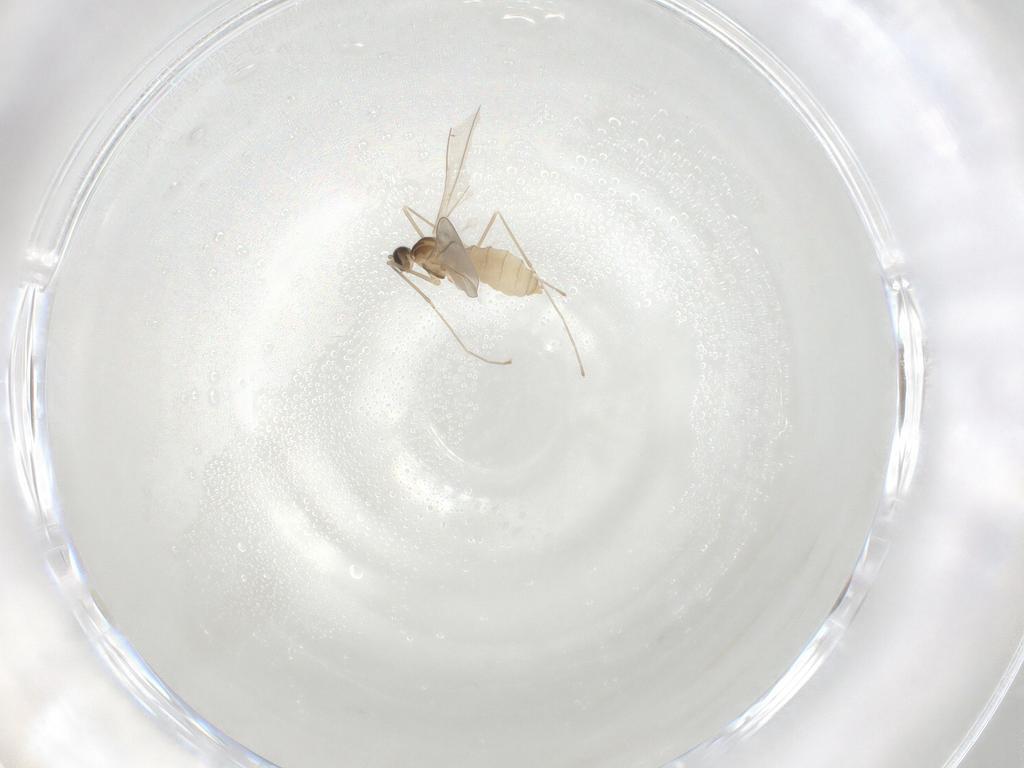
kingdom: Animalia
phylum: Arthropoda
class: Insecta
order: Diptera
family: Cecidomyiidae
